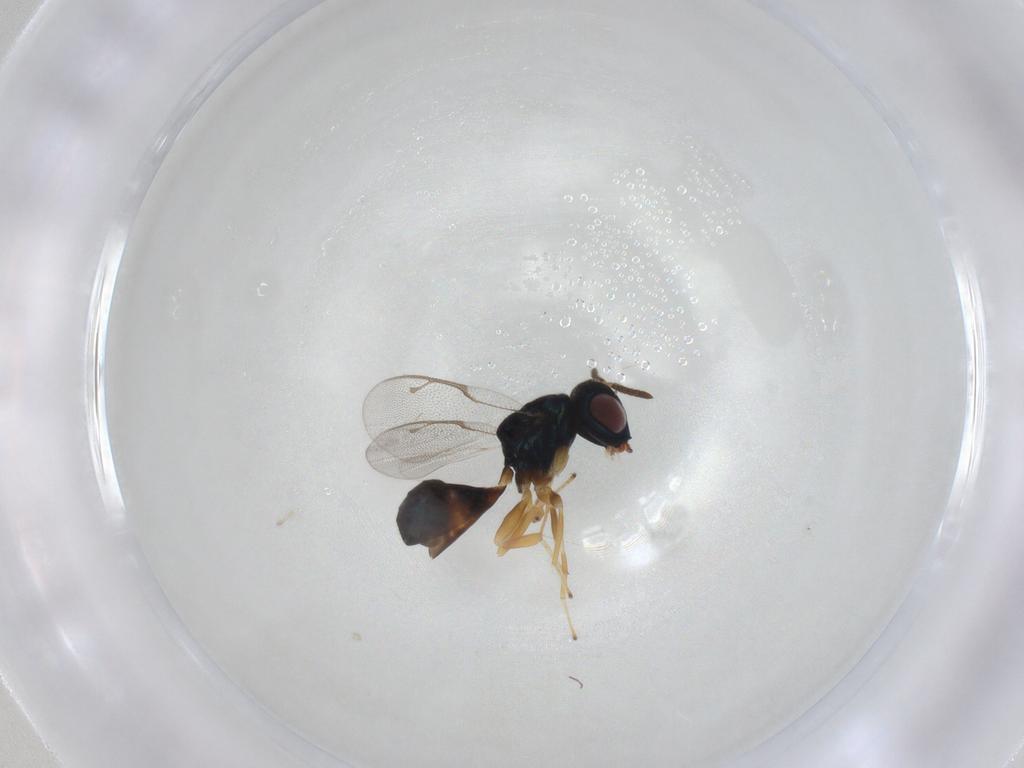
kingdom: Animalia
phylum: Arthropoda
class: Insecta
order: Hymenoptera
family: Pteromalidae
